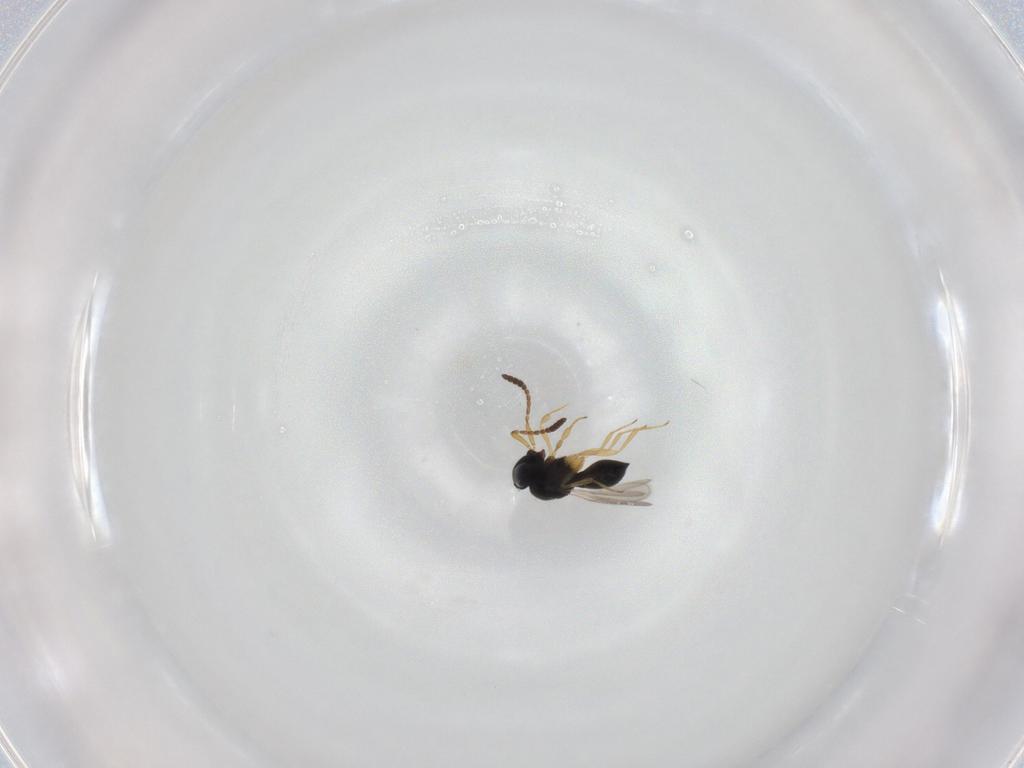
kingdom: Animalia
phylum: Arthropoda
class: Insecta
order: Hymenoptera
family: Scelionidae
